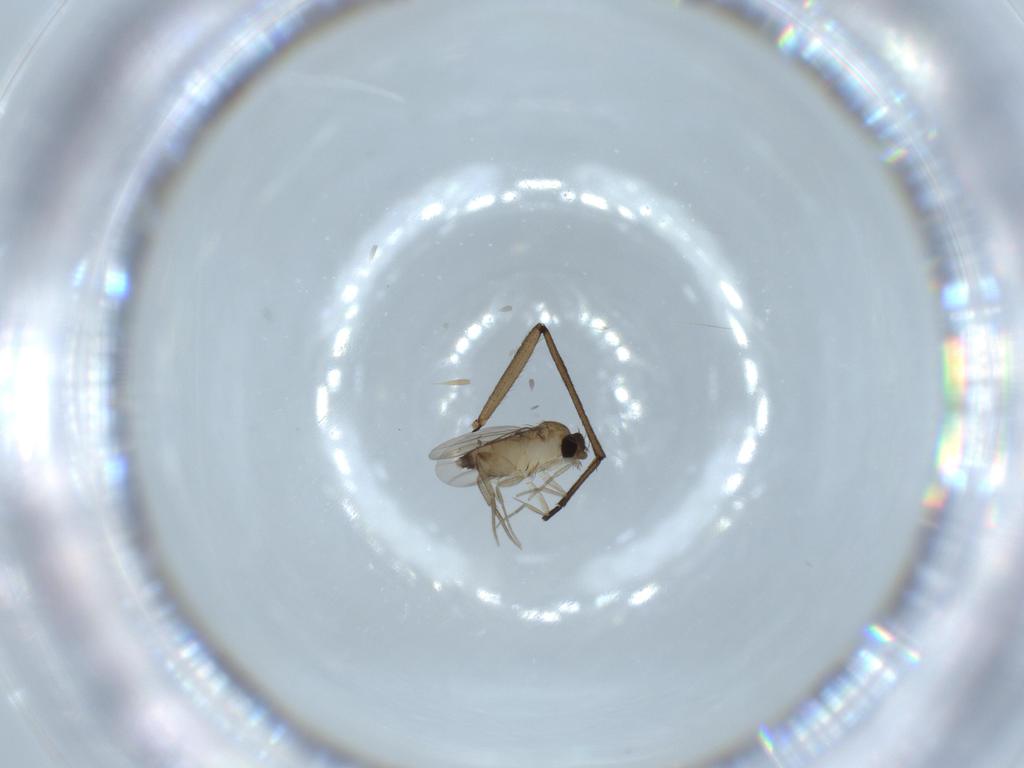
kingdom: Animalia
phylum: Arthropoda
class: Insecta
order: Diptera
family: Phoridae
